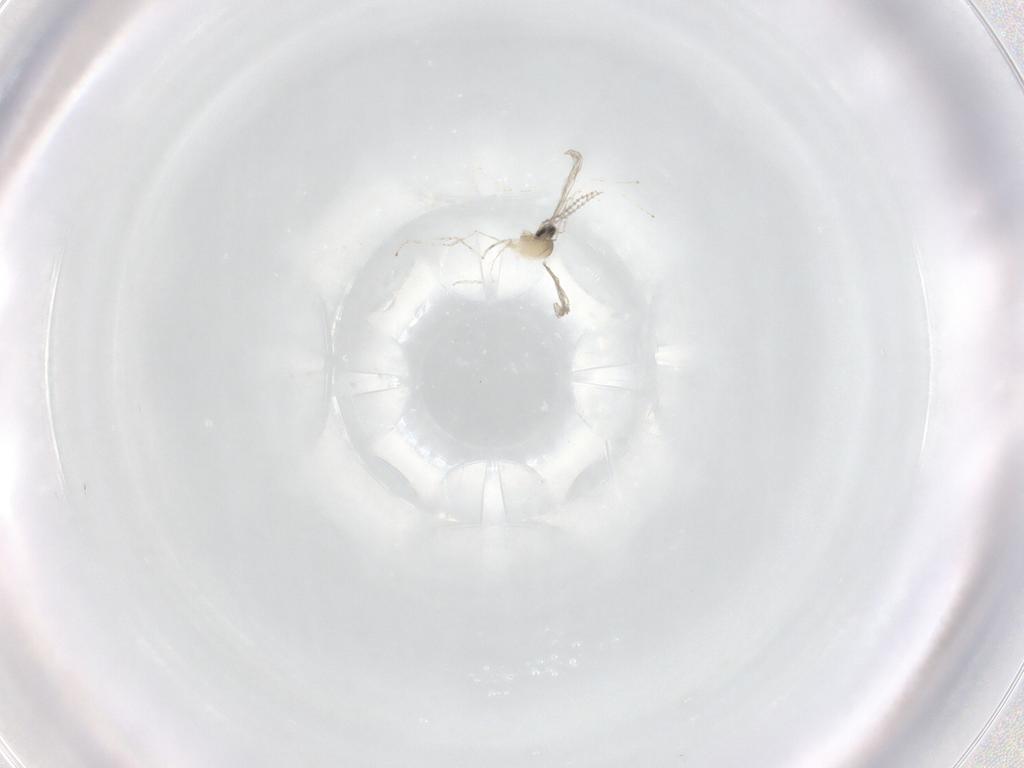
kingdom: Animalia
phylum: Arthropoda
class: Insecta
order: Diptera
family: Cecidomyiidae
